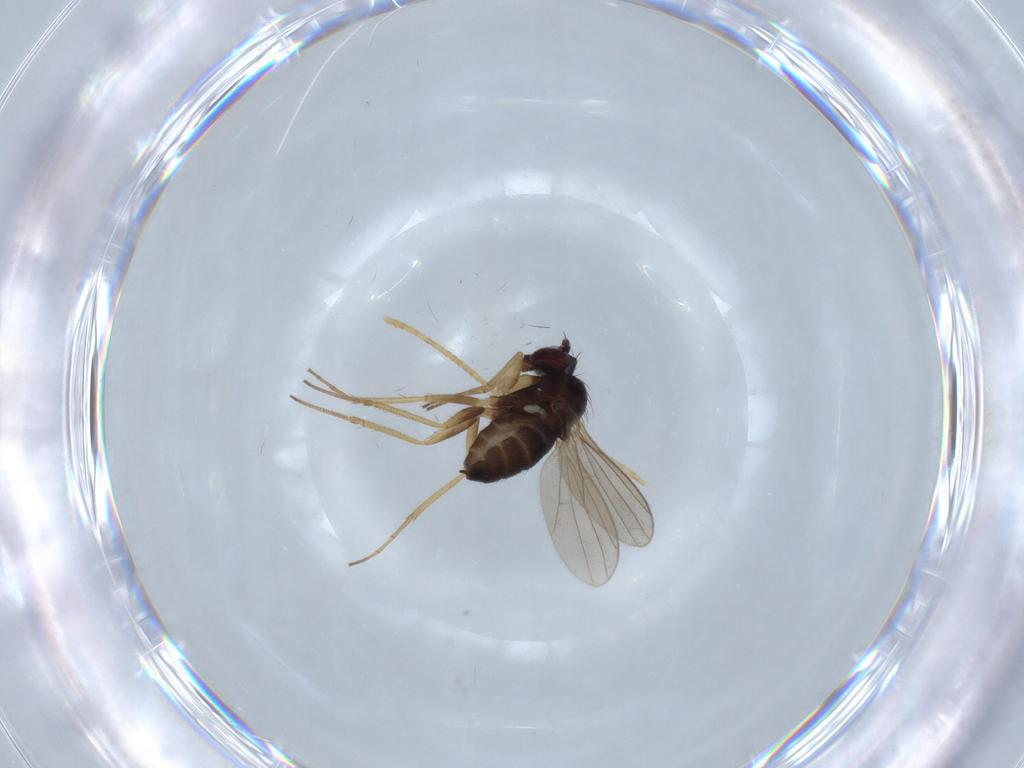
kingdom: Animalia
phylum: Arthropoda
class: Insecta
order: Diptera
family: Dolichopodidae
